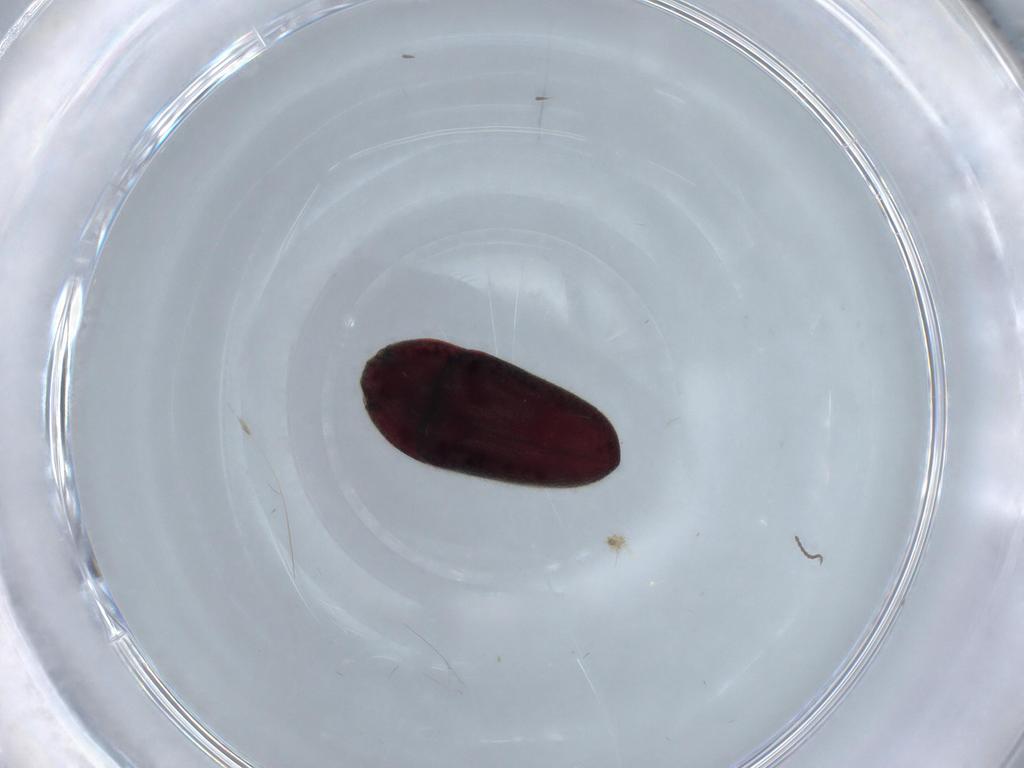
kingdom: Animalia
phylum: Arthropoda
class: Insecta
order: Coleoptera
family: Throscidae
